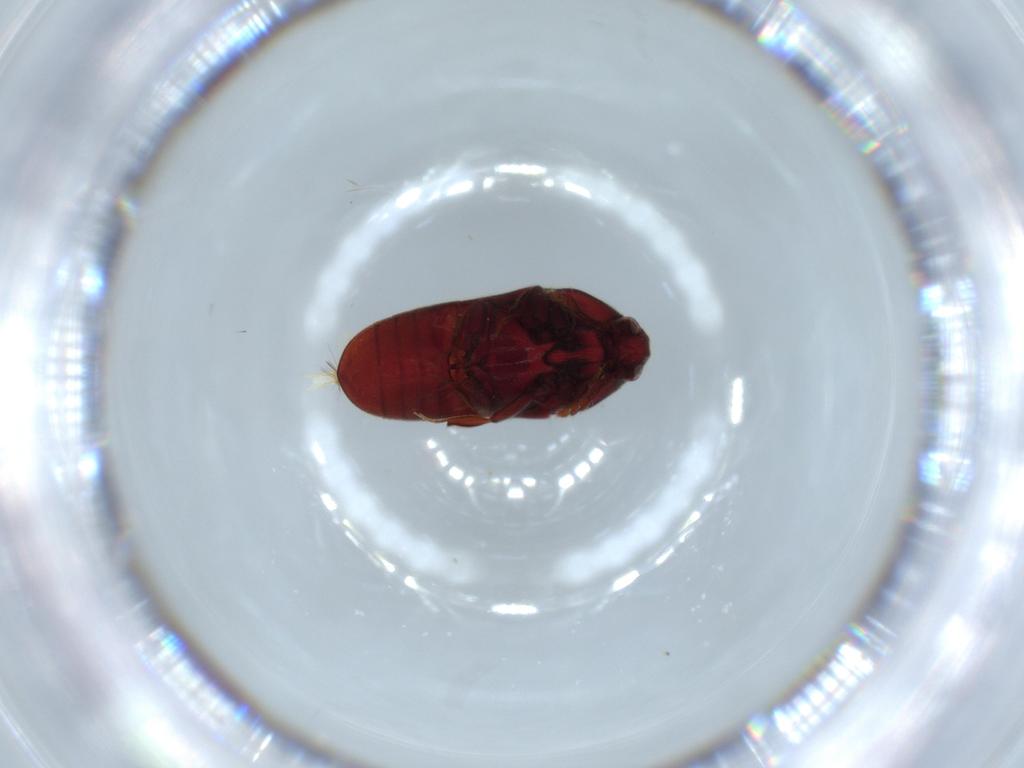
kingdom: Animalia
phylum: Arthropoda
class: Insecta
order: Coleoptera
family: Throscidae
